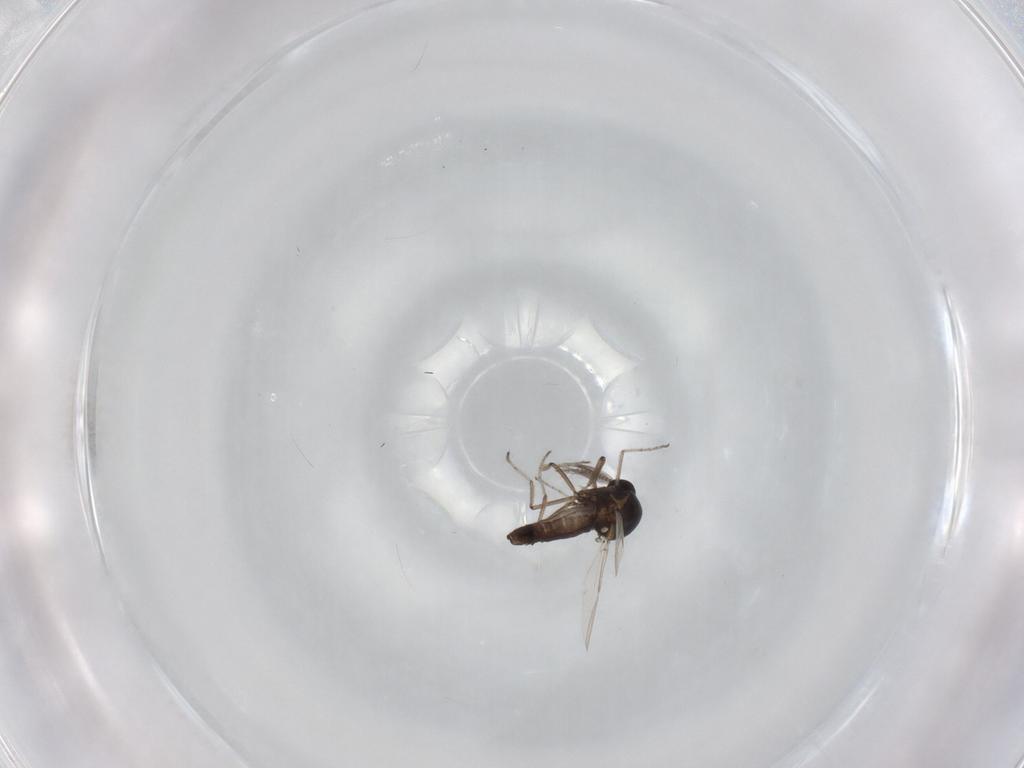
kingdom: Animalia
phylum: Arthropoda
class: Insecta
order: Diptera
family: Ceratopogonidae
